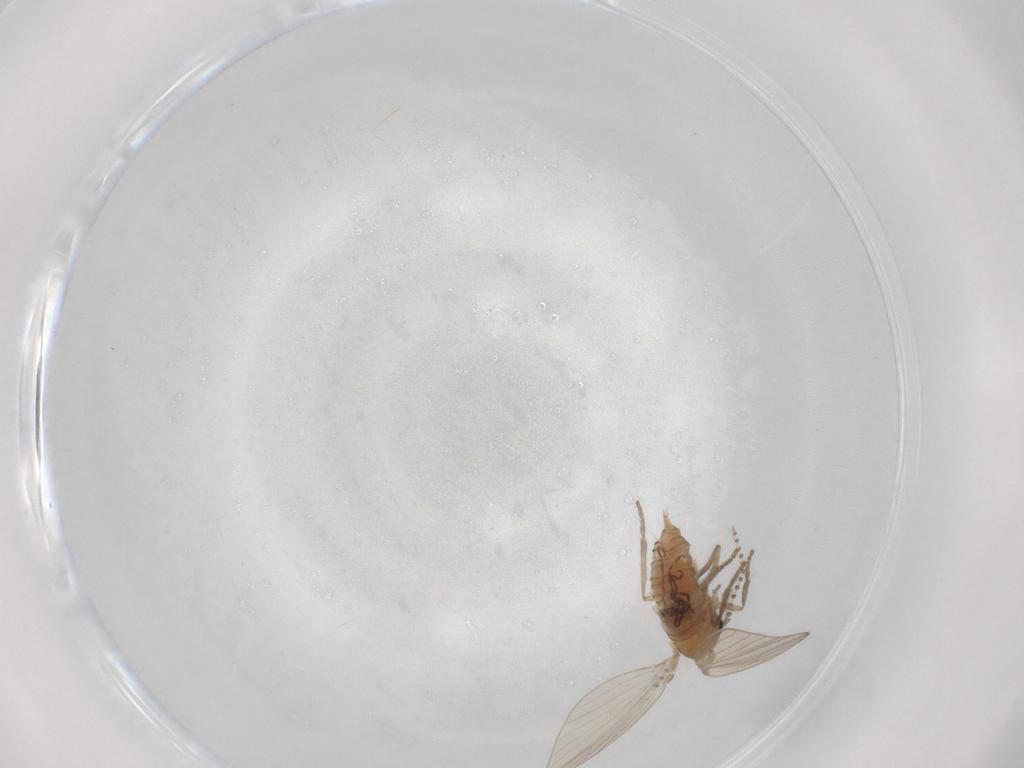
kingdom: Animalia
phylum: Arthropoda
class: Insecta
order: Diptera
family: Psychodidae
